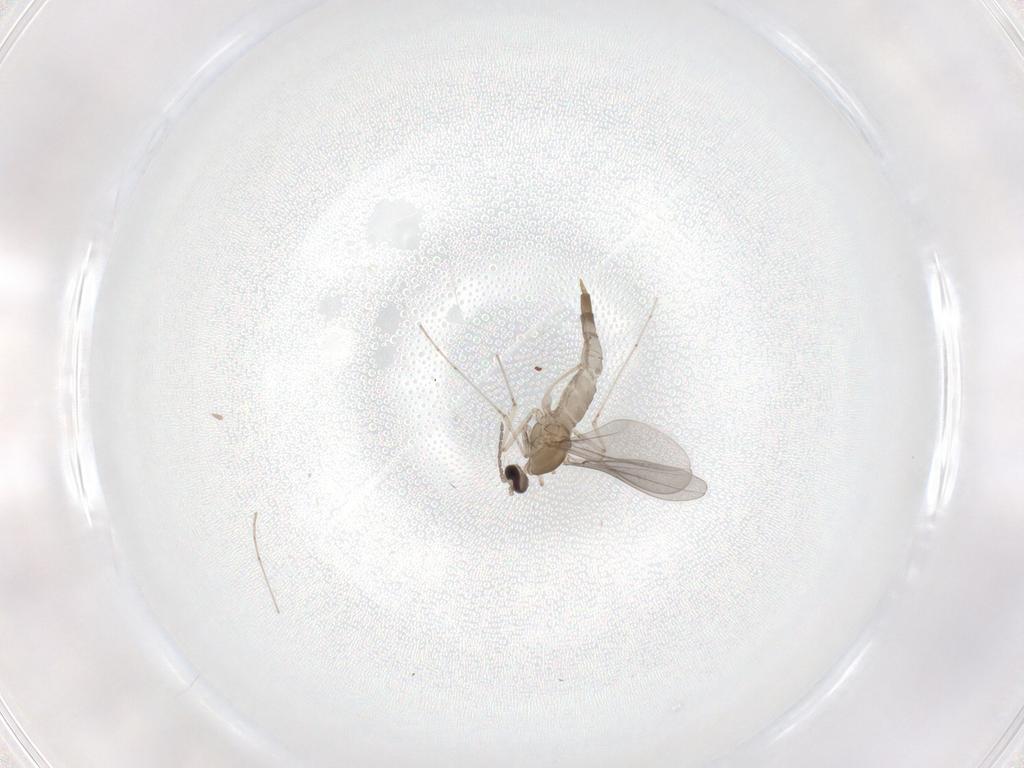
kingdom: Animalia
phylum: Arthropoda
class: Insecta
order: Diptera
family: Cecidomyiidae
